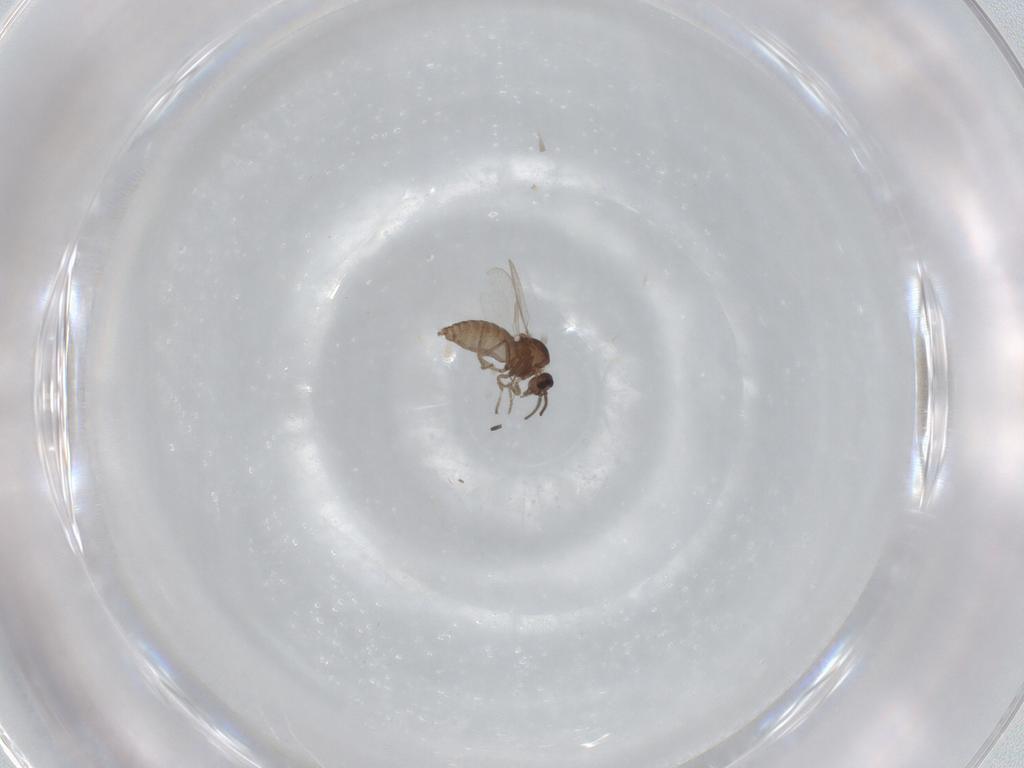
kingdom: Animalia
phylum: Arthropoda
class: Insecta
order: Diptera
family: Ceratopogonidae
